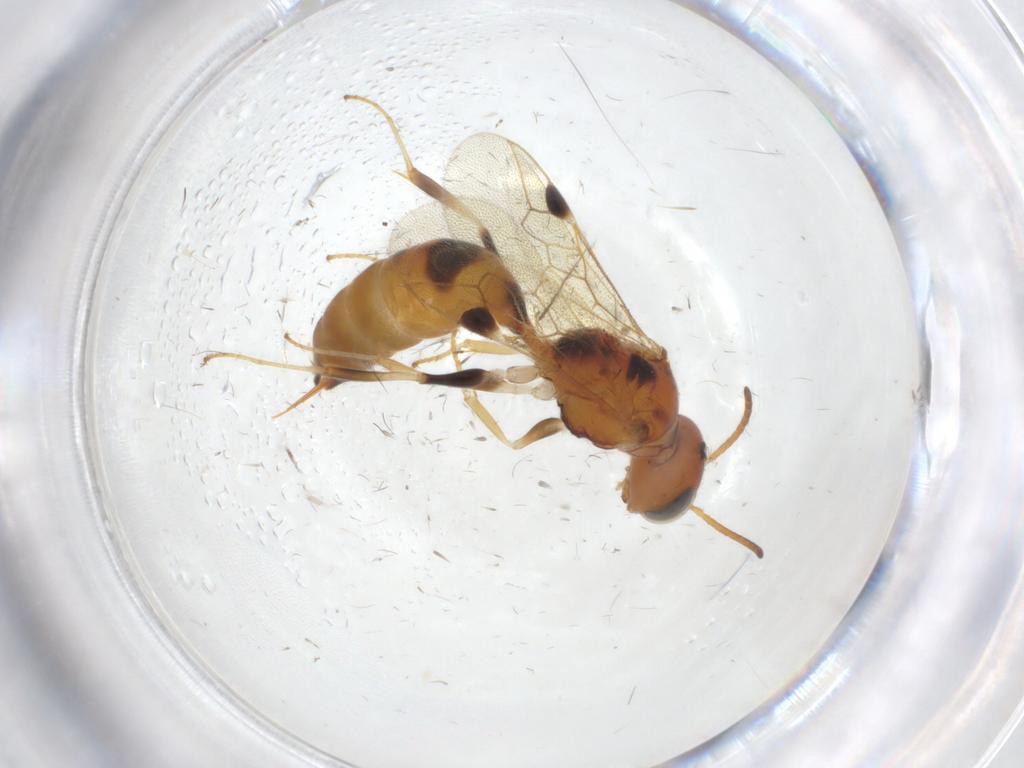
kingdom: Animalia
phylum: Arthropoda
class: Insecta
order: Hymenoptera
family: Pemphredonidae
